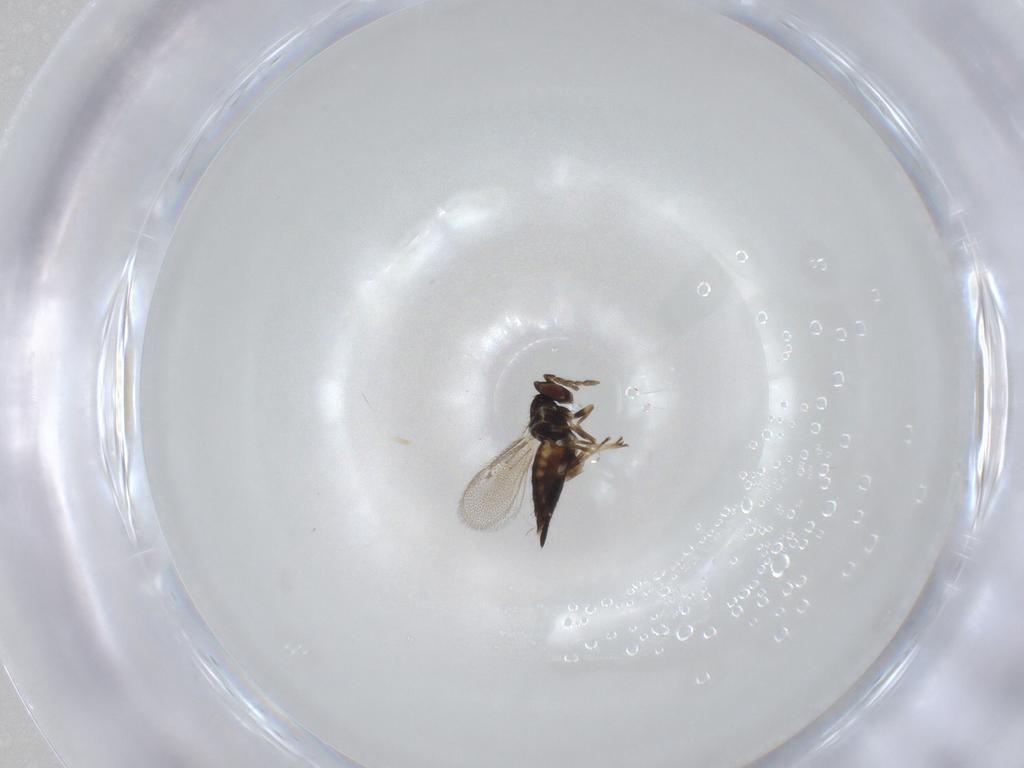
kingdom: Animalia
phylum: Arthropoda
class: Insecta
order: Hymenoptera
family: Eulophidae
